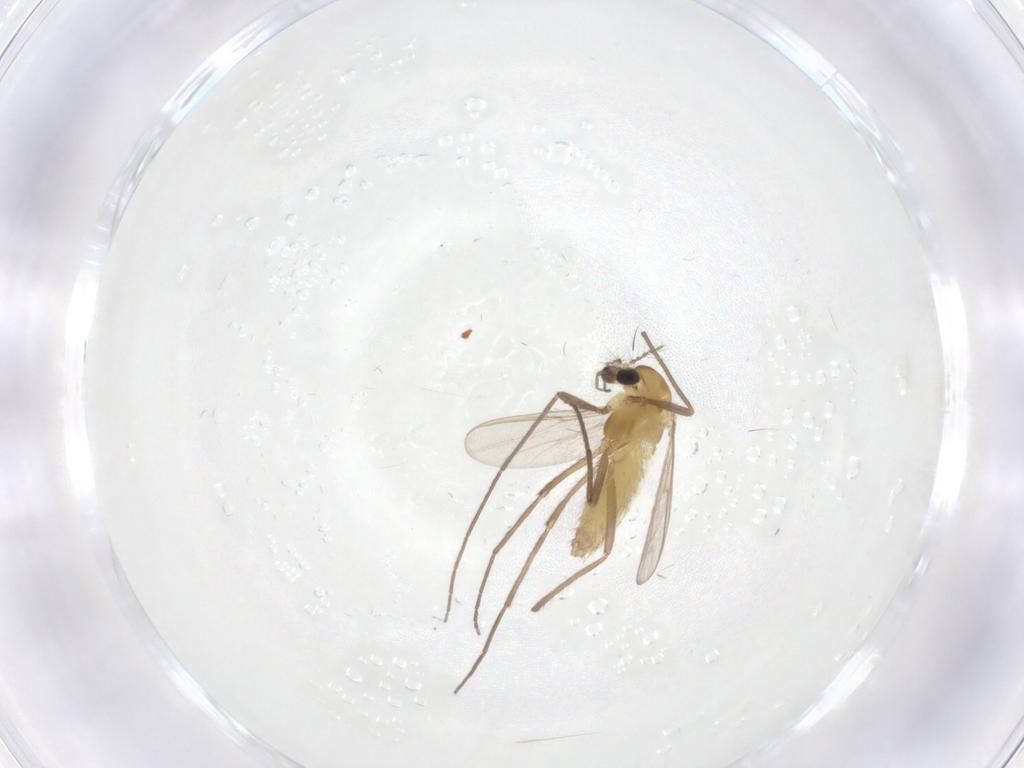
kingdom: Animalia
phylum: Arthropoda
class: Insecta
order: Diptera
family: Chironomidae
